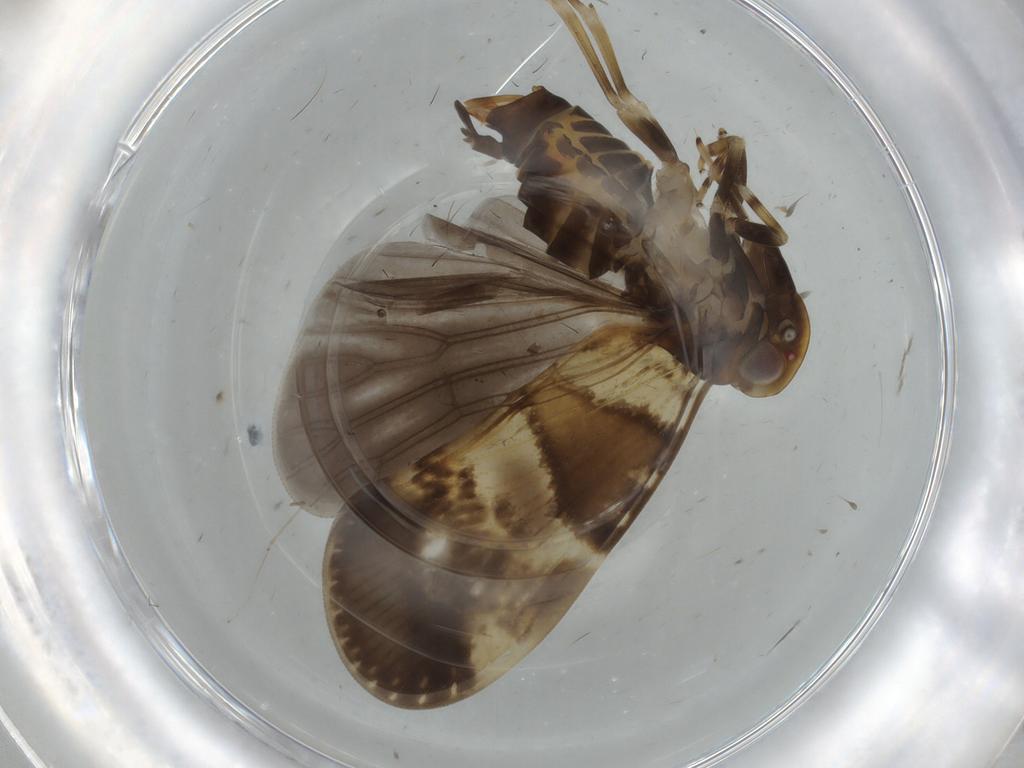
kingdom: Animalia
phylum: Arthropoda
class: Insecta
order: Hemiptera
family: Cixiidae
